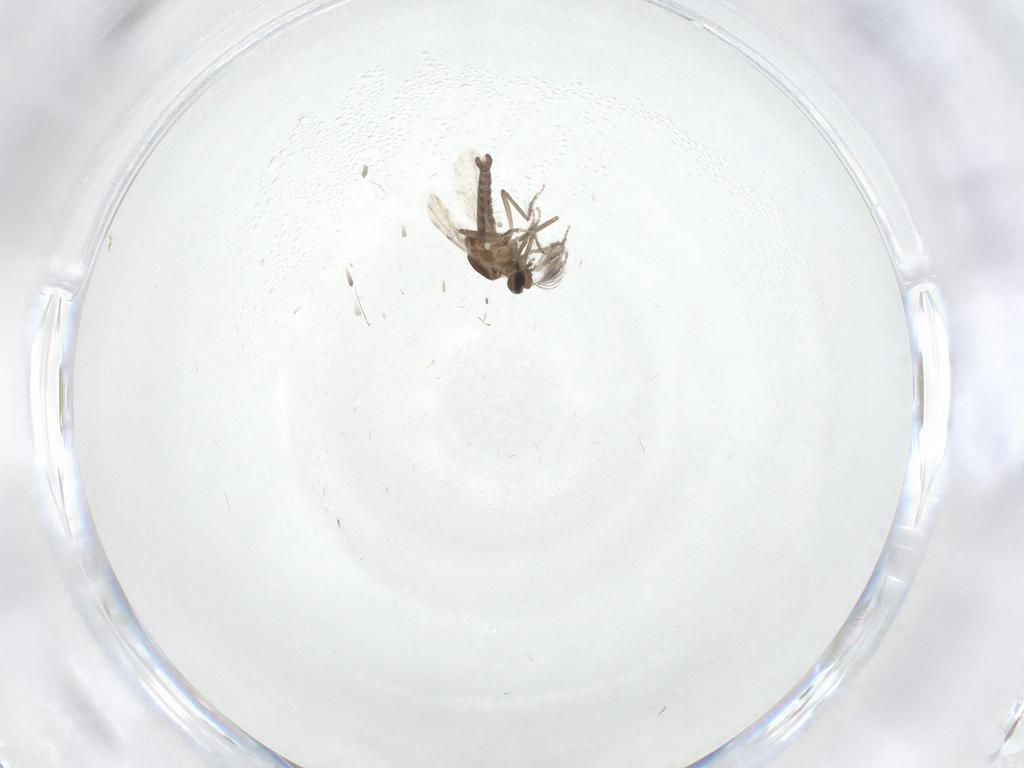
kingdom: Animalia
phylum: Arthropoda
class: Insecta
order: Diptera
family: Ceratopogonidae
